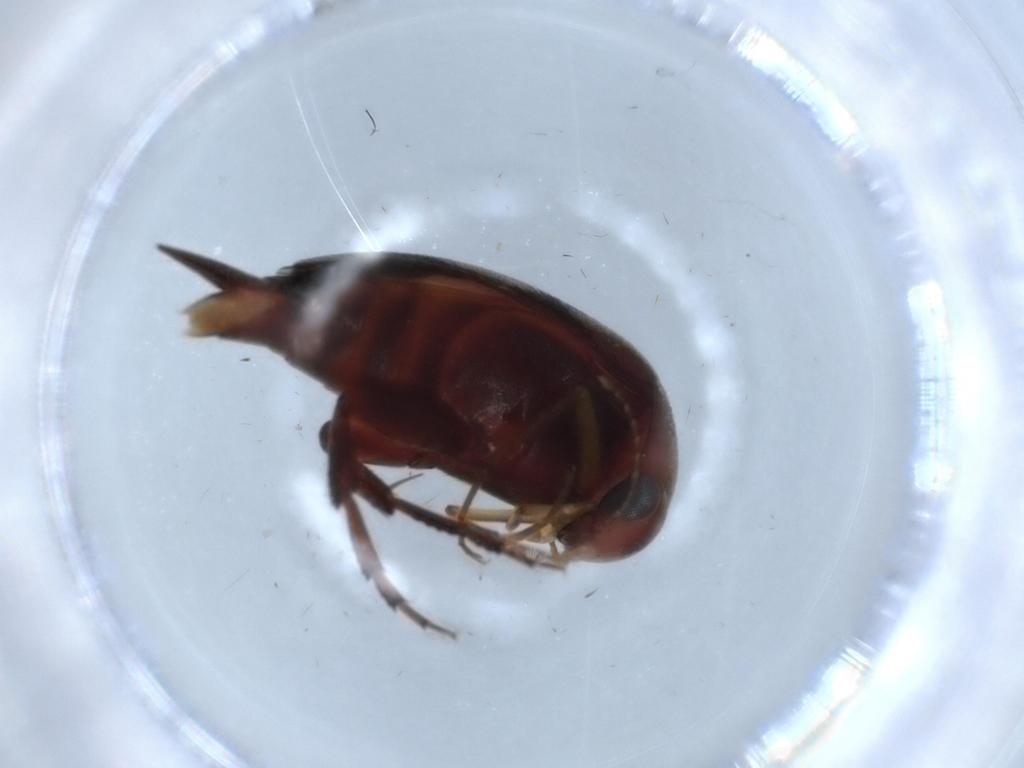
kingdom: Animalia
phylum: Arthropoda
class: Insecta
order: Coleoptera
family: Mordellidae
